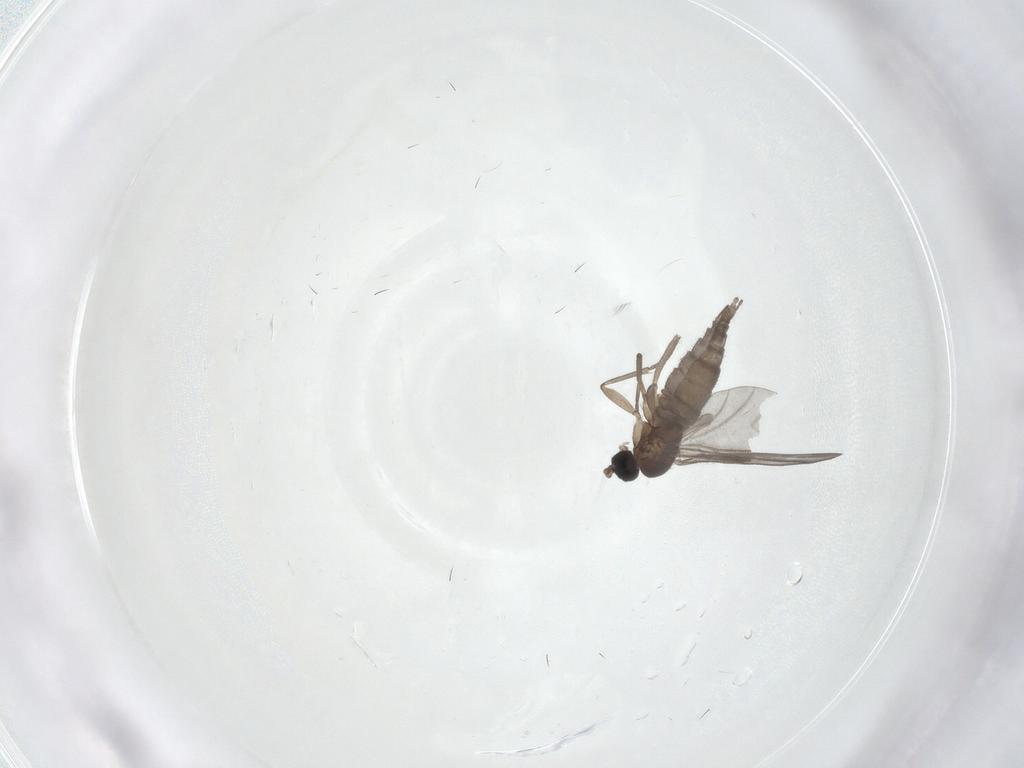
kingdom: Animalia
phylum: Arthropoda
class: Insecta
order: Diptera
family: Sciaridae
